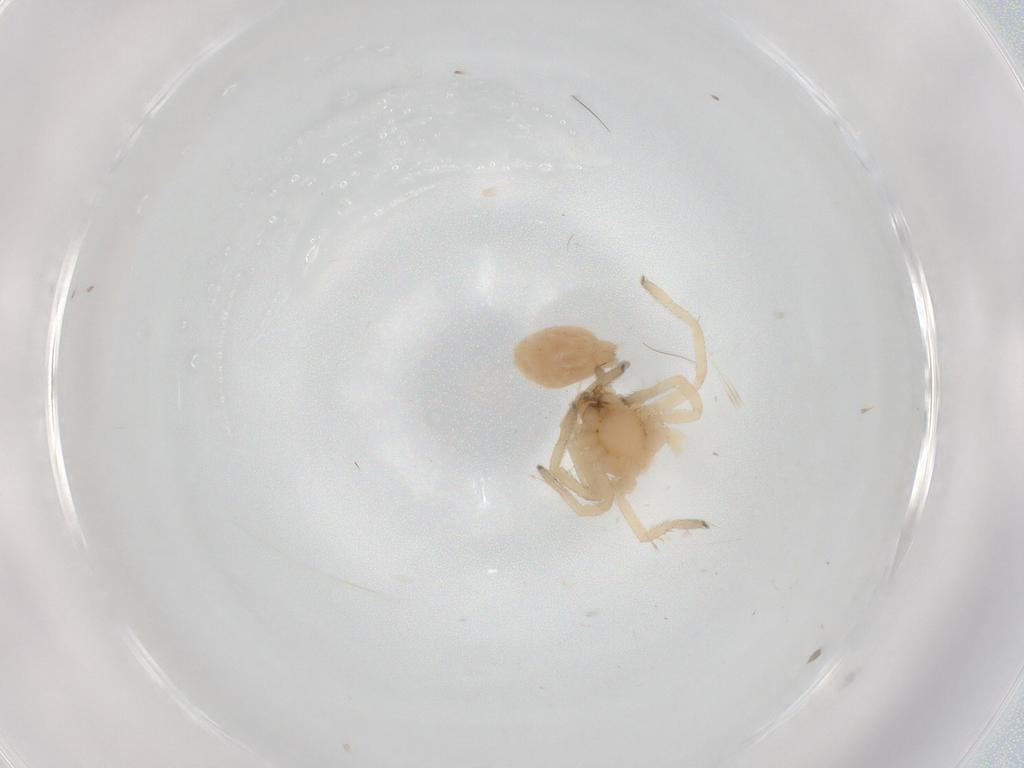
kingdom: Animalia
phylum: Arthropoda
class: Arachnida
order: Araneae
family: Cheiracanthiidae
